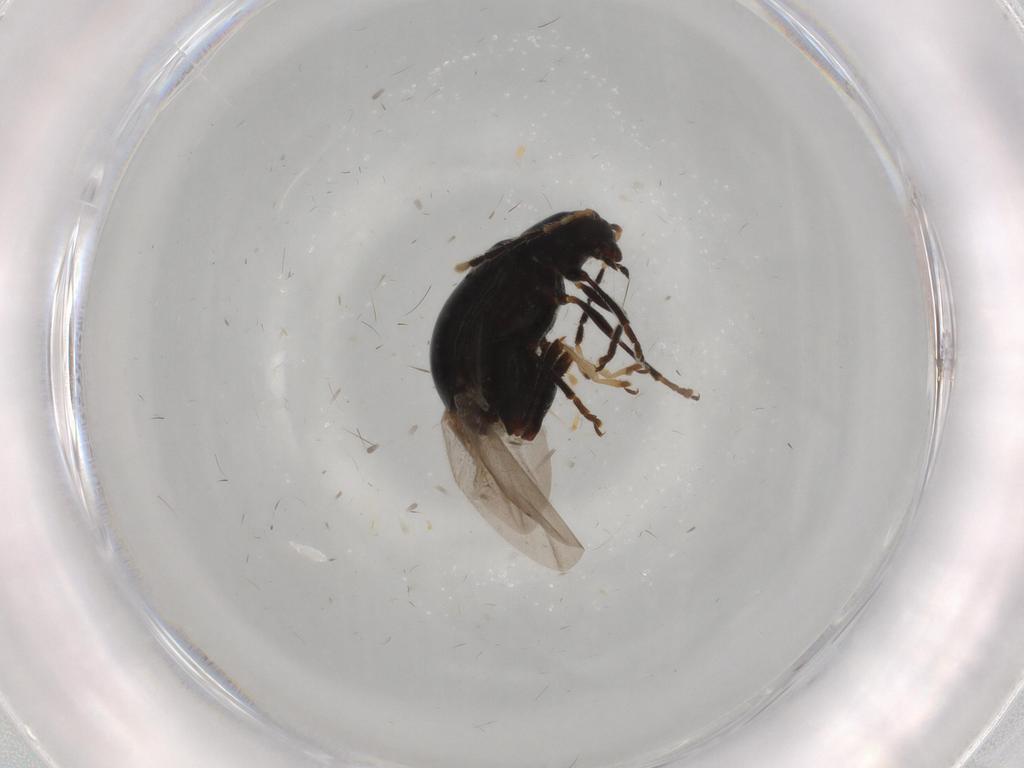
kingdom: Animalia
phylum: Arthropoda
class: Insecta
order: Coleoptera
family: Chrysomelidae
